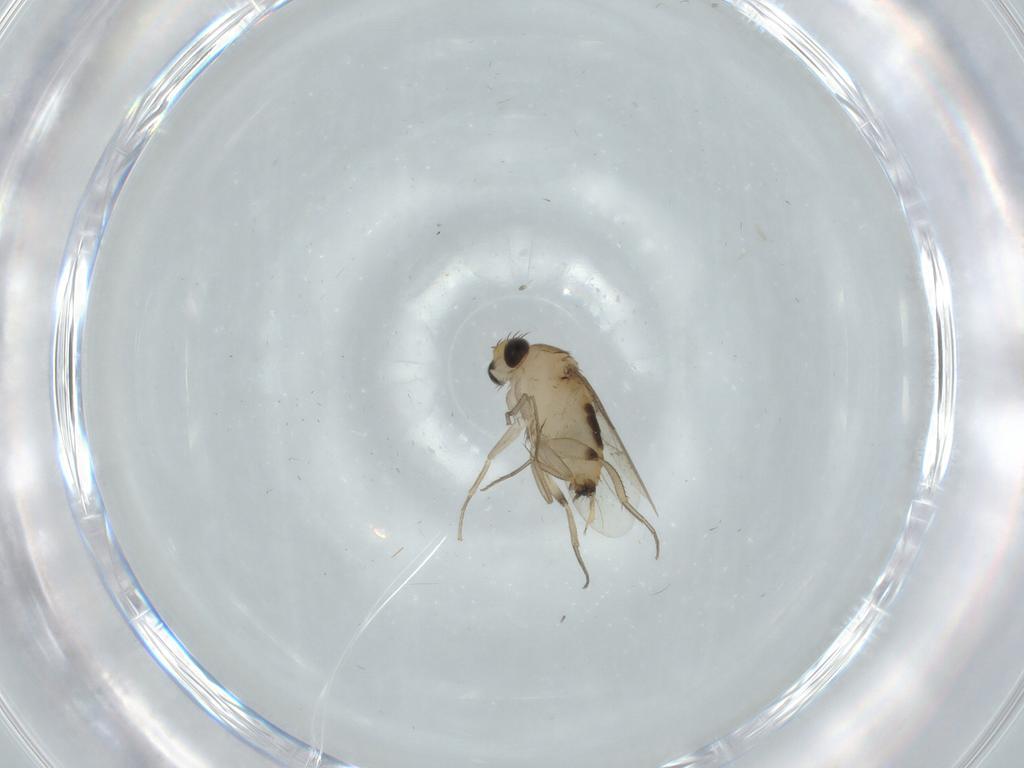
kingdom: Animalia
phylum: Arthropoda
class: Insecta
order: Diptera
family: Phoridae
